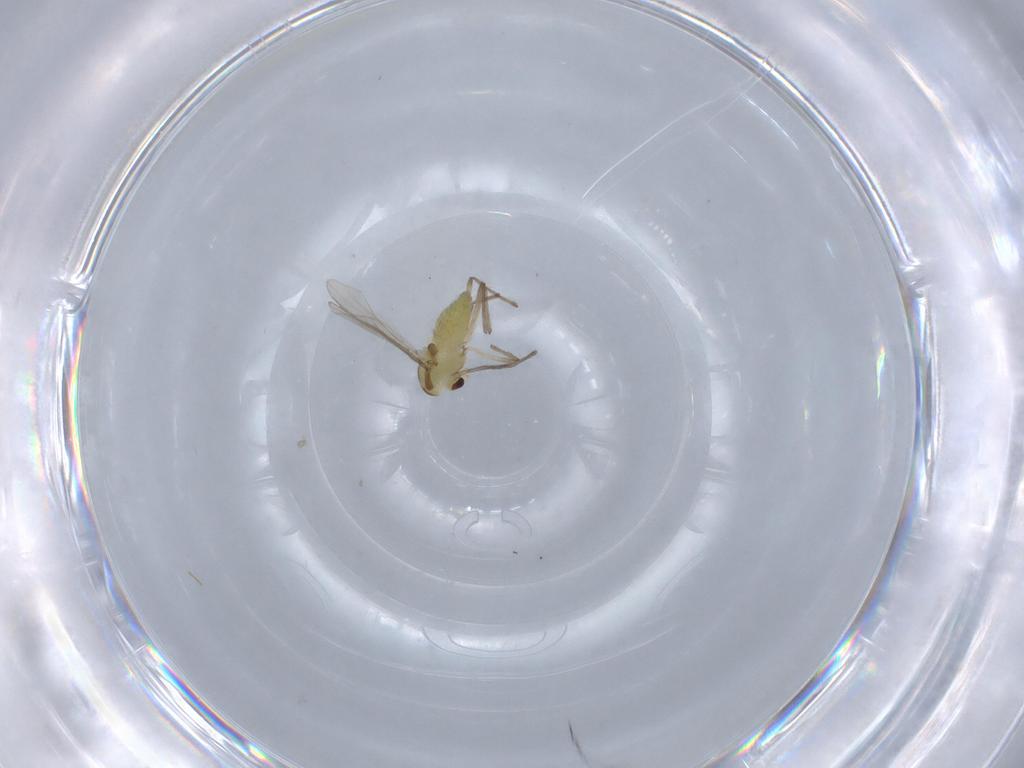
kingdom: Animalia
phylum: Arthropoda
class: Insecta
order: Diptera
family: Chironomidae
